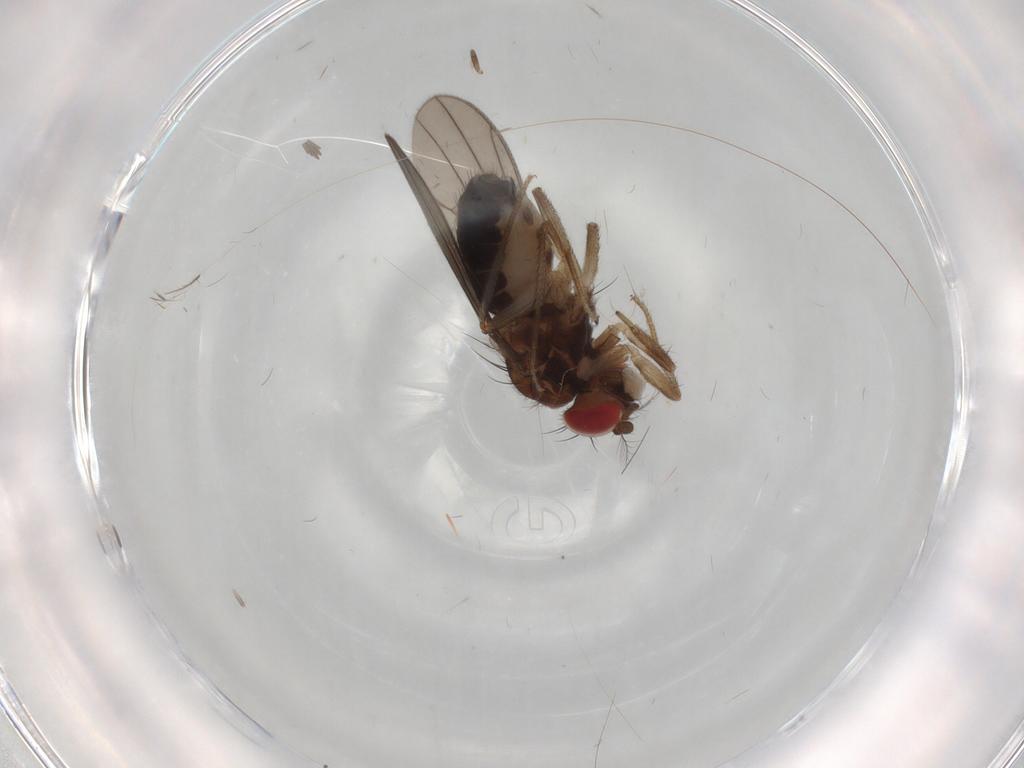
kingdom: Animalia
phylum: Arthropoda
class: Insecta
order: Diptera
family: Drosophilidae
